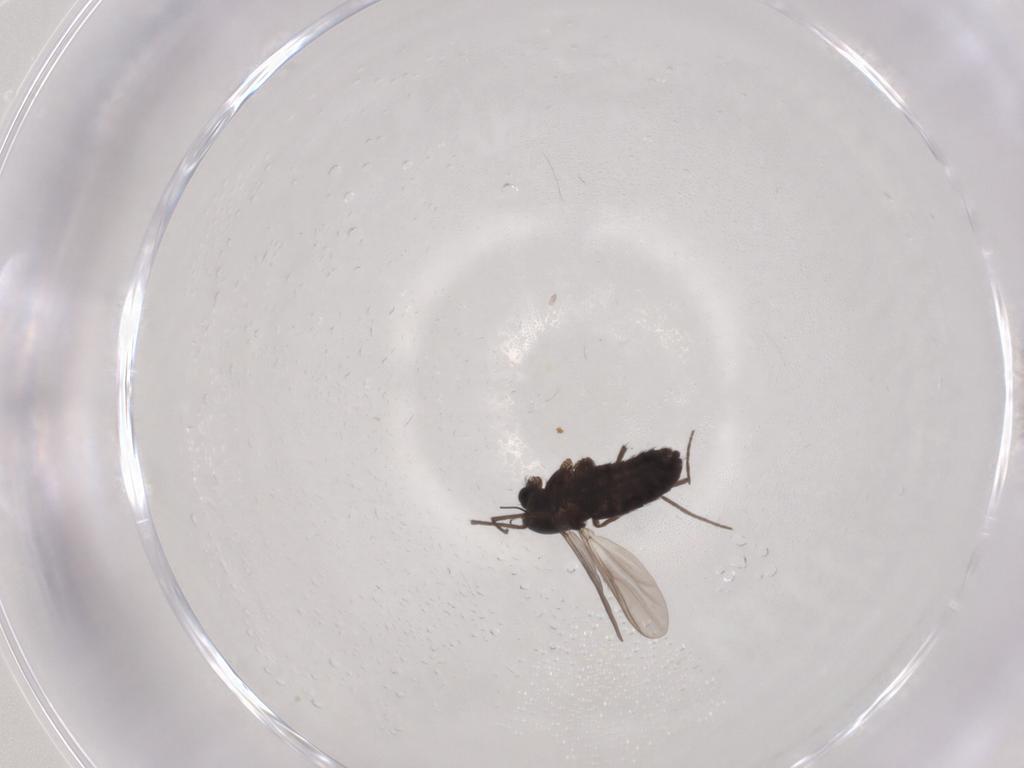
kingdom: Animalia
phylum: Arthropoda
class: Insecta
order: Diptera
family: Chironomidae
